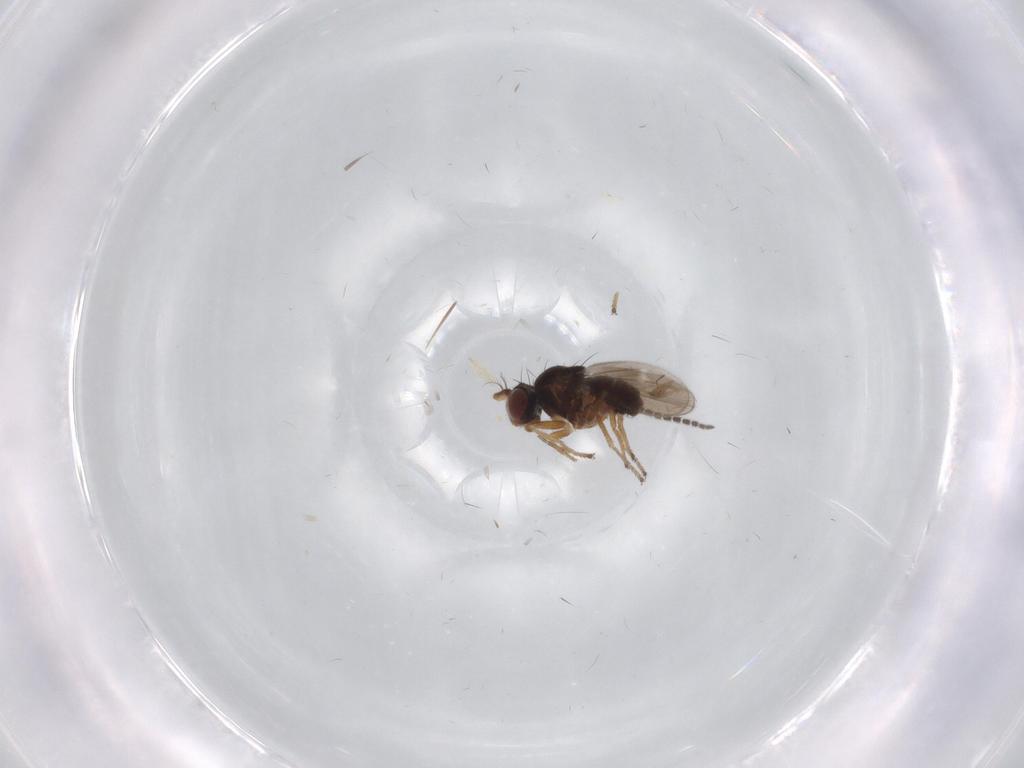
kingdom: Animalia
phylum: Arthropoda
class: Insecta
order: Diptera
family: Ephydridae
